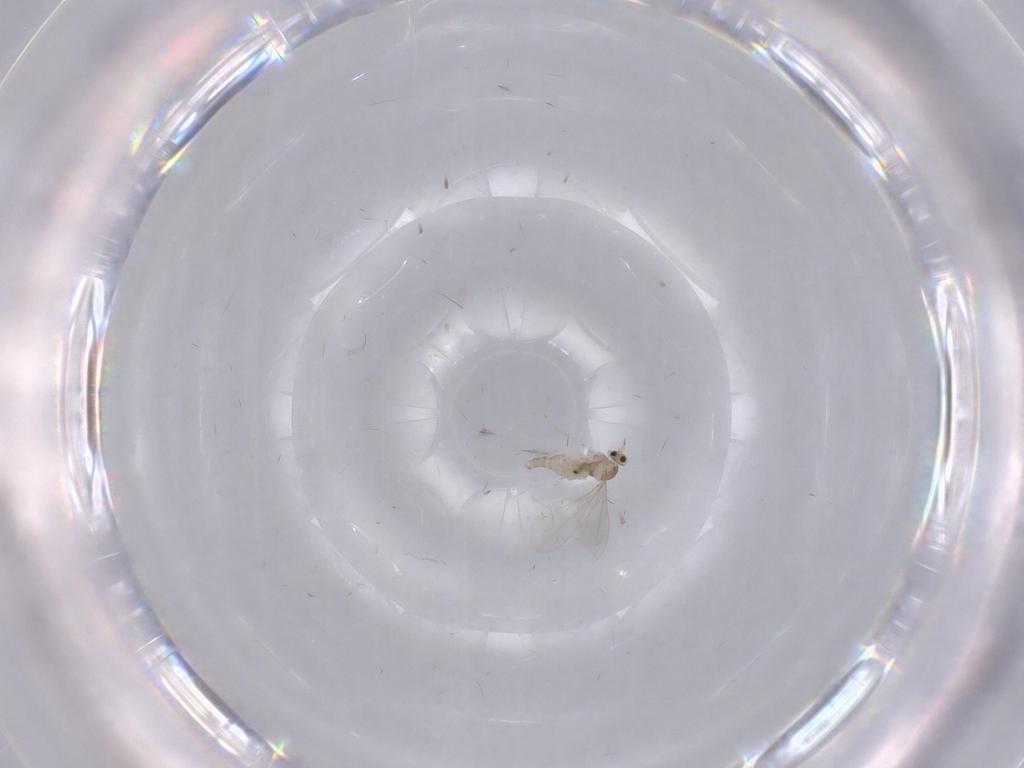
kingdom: Animalia
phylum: Arthropoda
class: Insecta
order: Diptera
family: Cecidomyiidae
